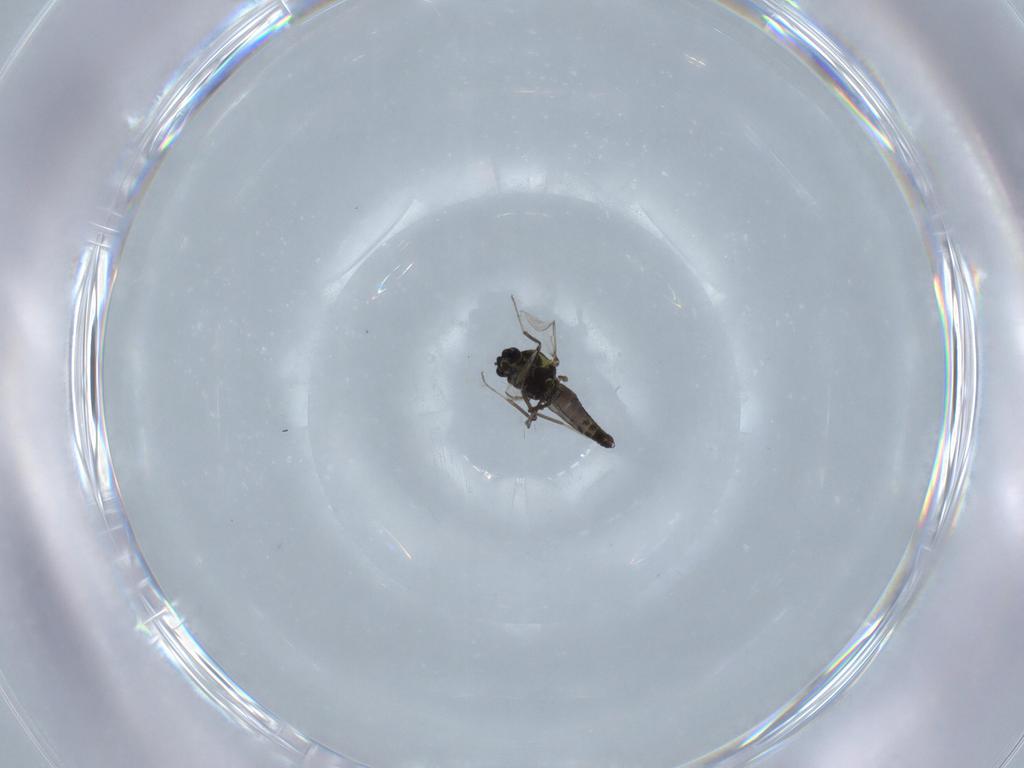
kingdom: Animalia
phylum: Arthropoda
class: Insecta
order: Diptera
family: Ceratopogonidae
